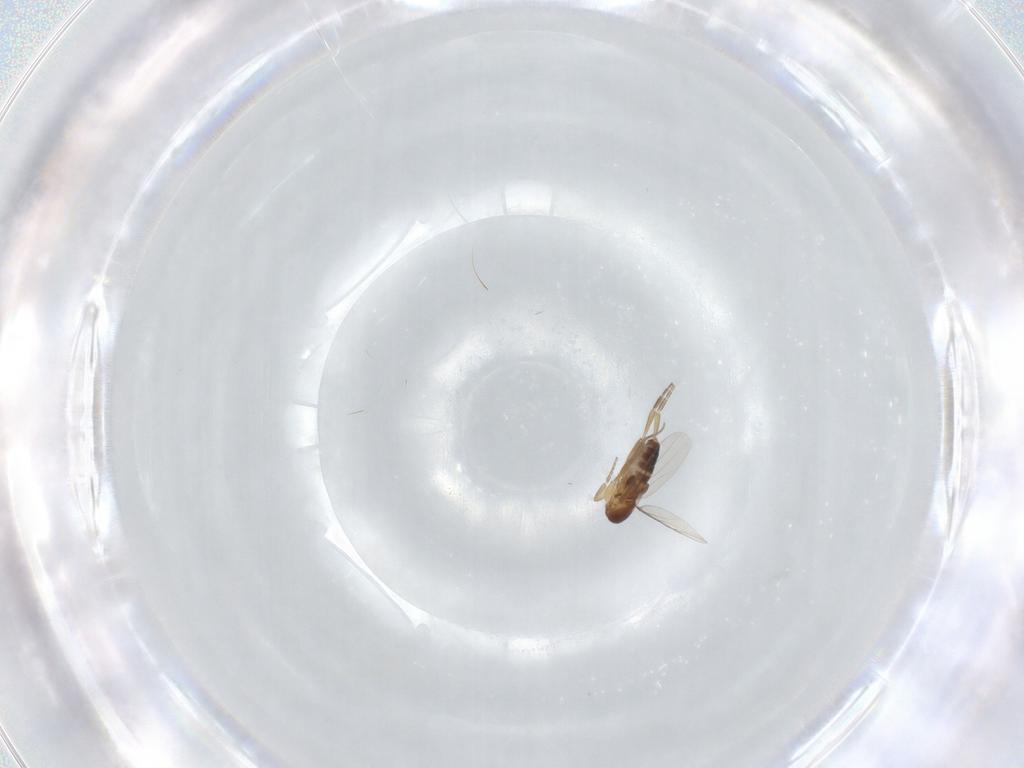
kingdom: Animalia
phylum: Arthropoda
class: Insecta
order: Diptera
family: Phoridae
